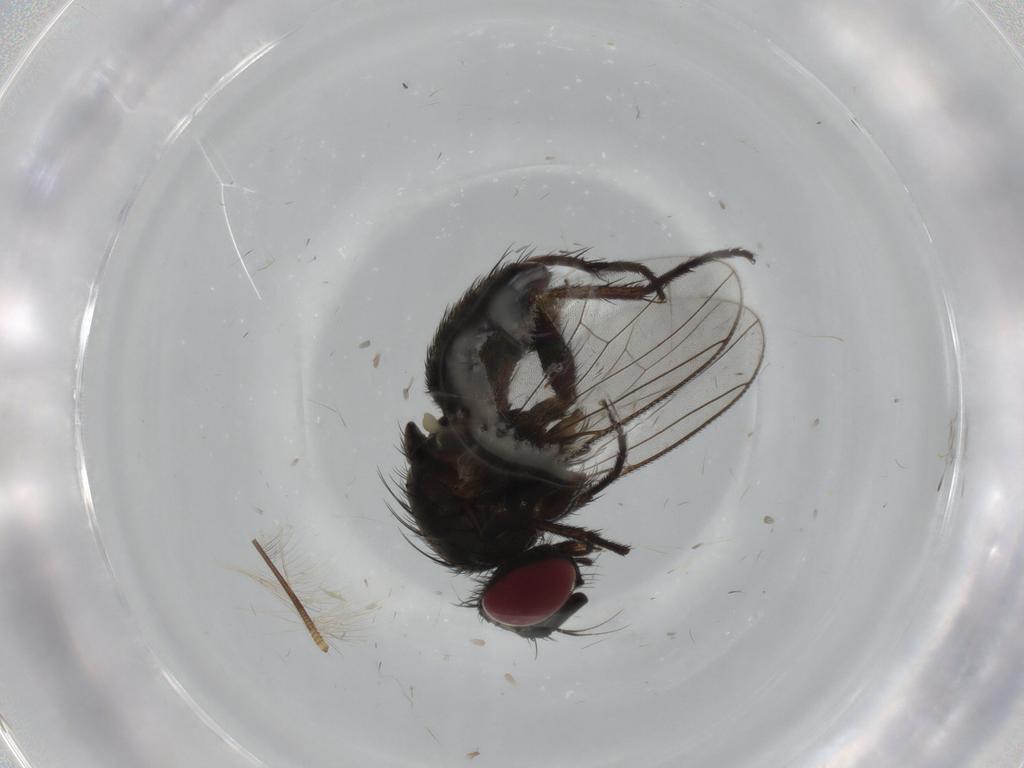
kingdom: Animalia
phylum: Arthropoda
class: Insecta
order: Diptera
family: Muscidae
